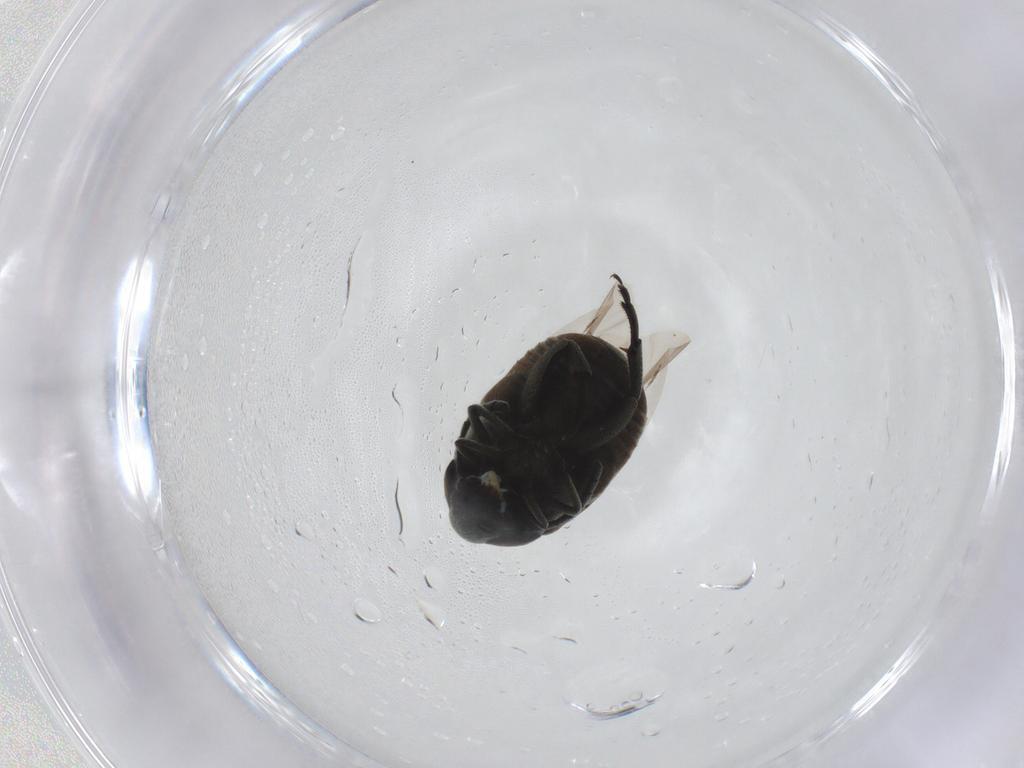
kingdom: Animalia
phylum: Arthropoda
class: Insecta
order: Coleoptera
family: Chrysomelidae
